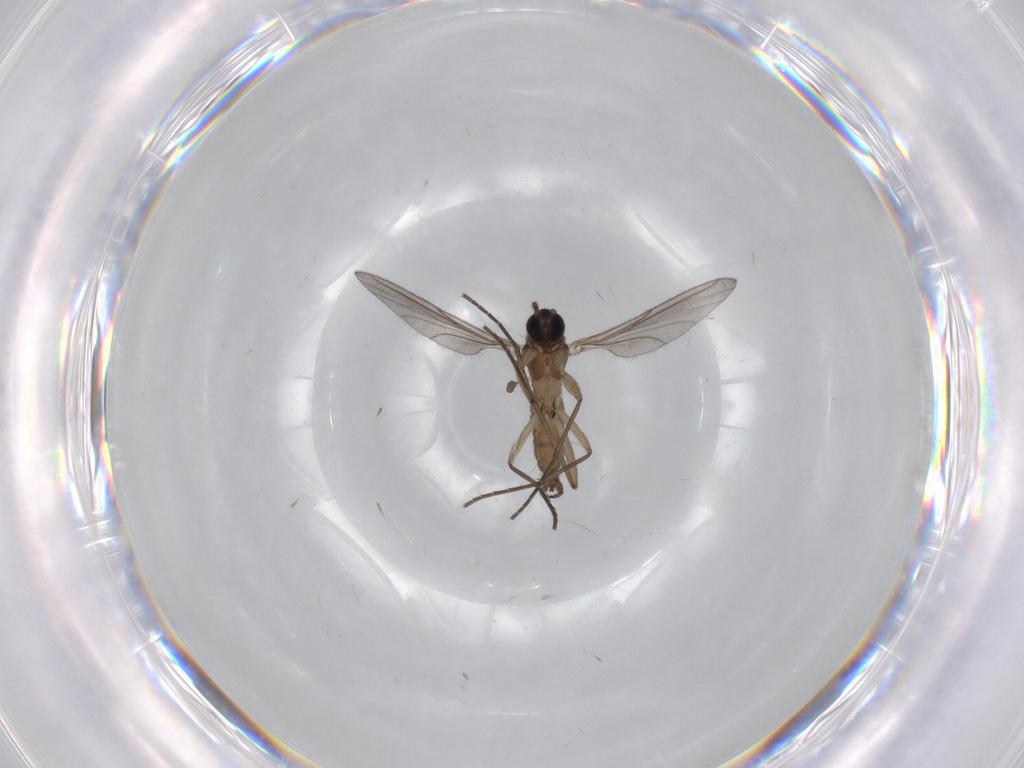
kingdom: Animalia
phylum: Arthropoda
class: Insecta
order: Diptera
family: Sciaridae
